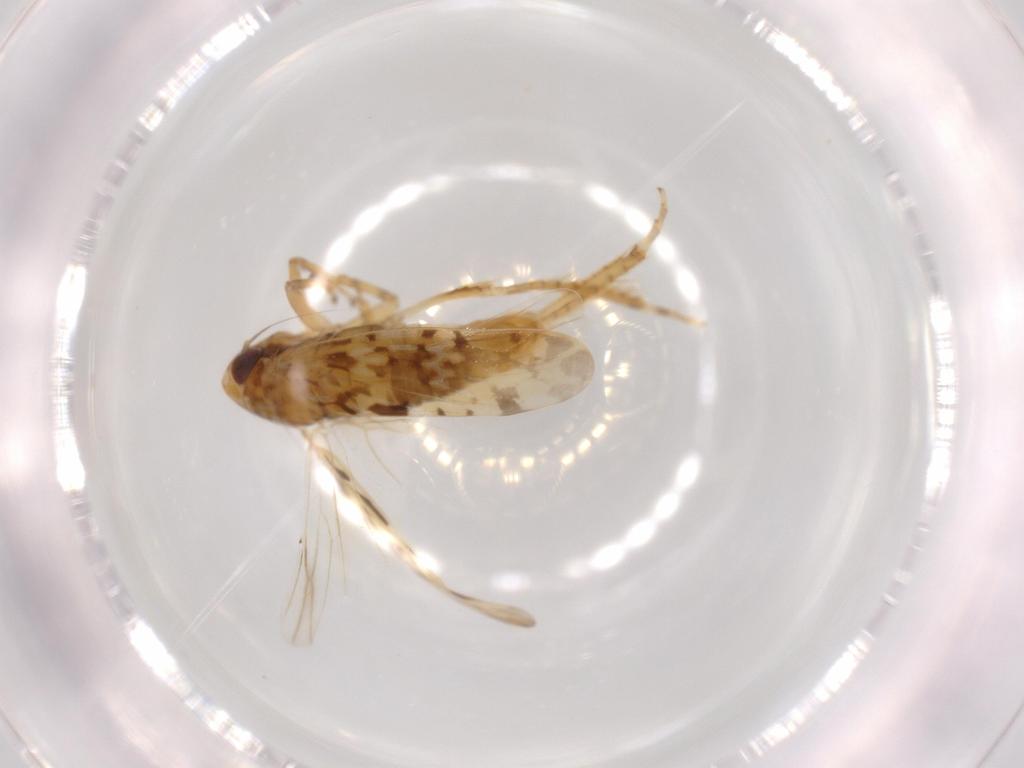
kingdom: Animalia
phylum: Arthropoda
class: Insecta
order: Hemiptera
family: Cicadellidae
